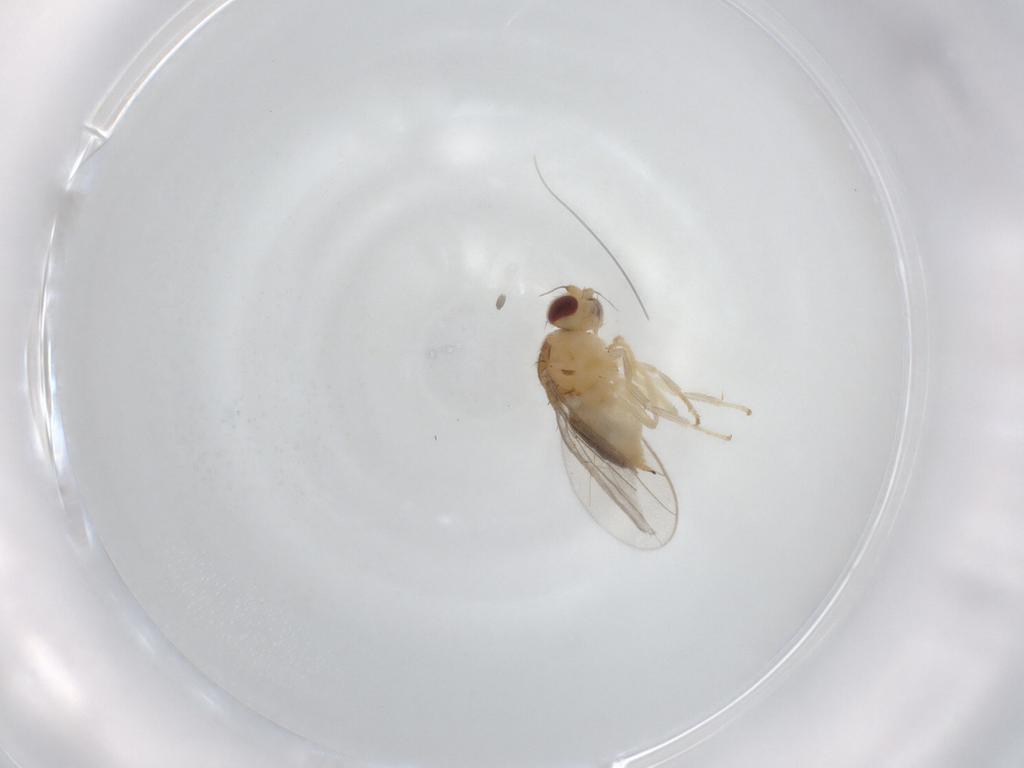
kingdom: Animalia
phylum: Arthropoda
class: Insecta
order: Diptera
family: Chloropidae
